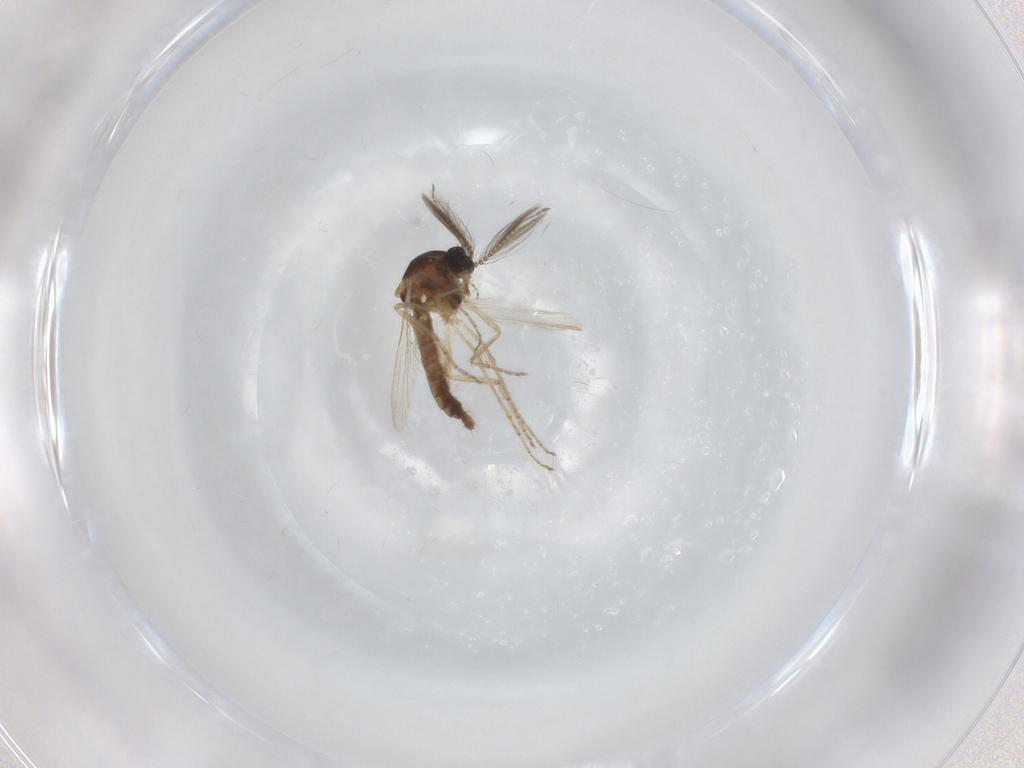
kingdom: Animalia
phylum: Arthropoda
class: Insecta
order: Diptera
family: Ceratopogonidae
